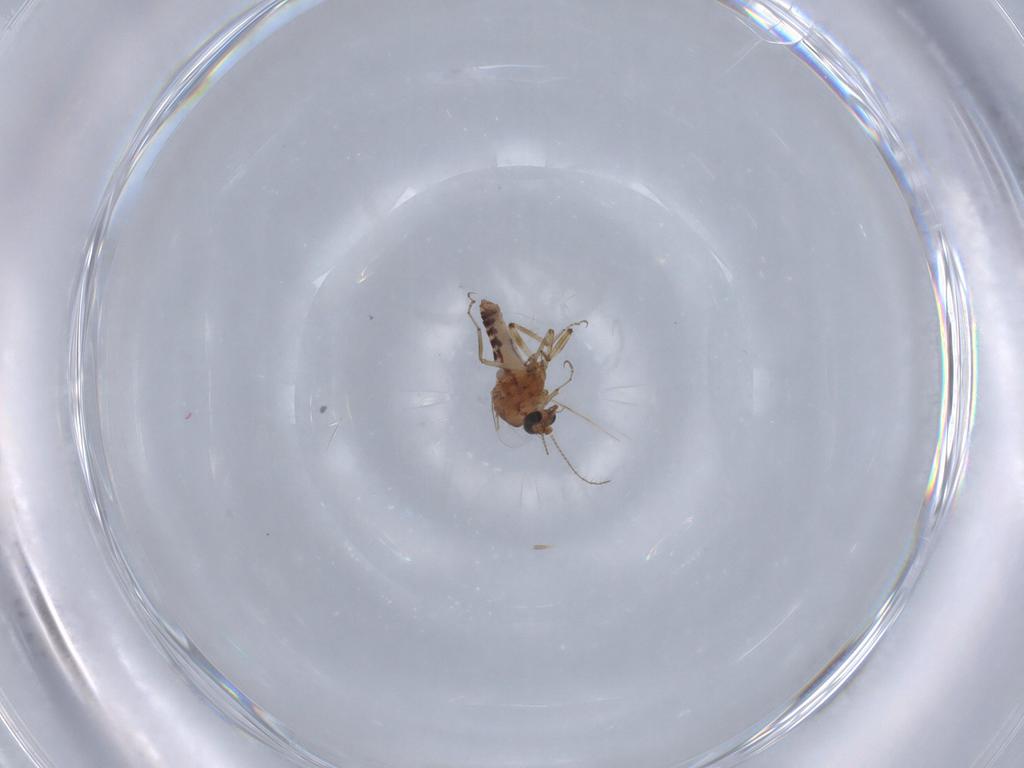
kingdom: Animalia
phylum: Arthropoda
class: Insecta
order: Diptera
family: Ceratopogonidae
